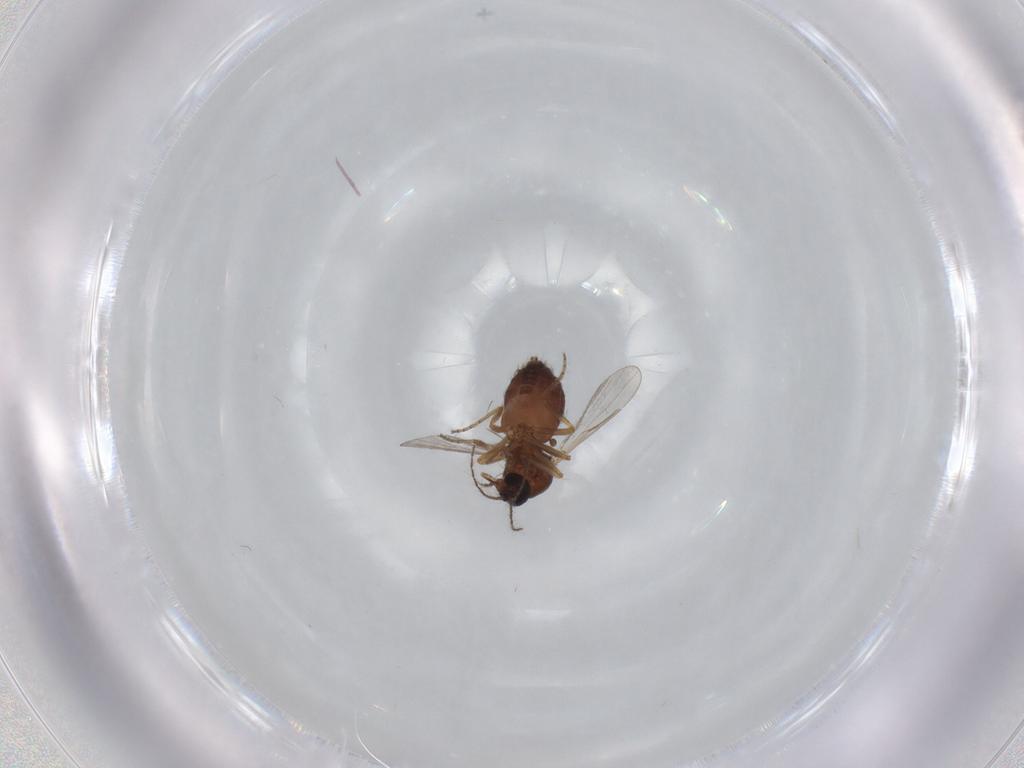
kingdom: Animalia
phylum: Arthropoda
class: Insecta
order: Diptera
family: Ceratopogonidae
